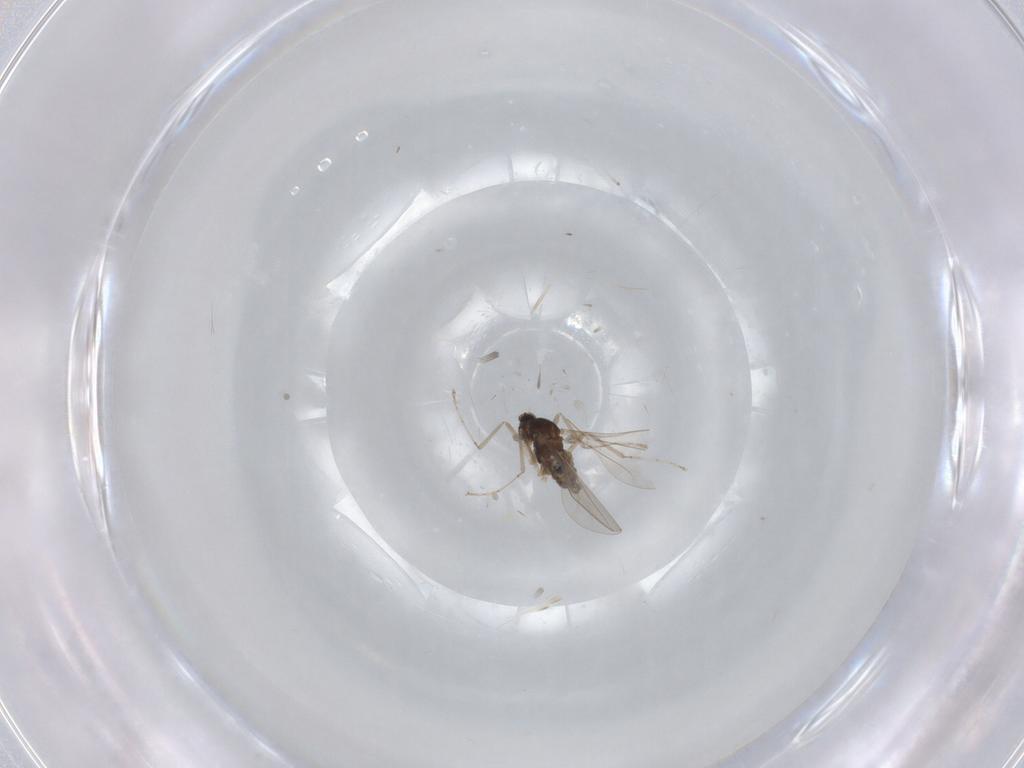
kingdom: Animalia
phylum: Arthropoda
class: Insecta
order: Diptera
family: Cecidomyiidae
